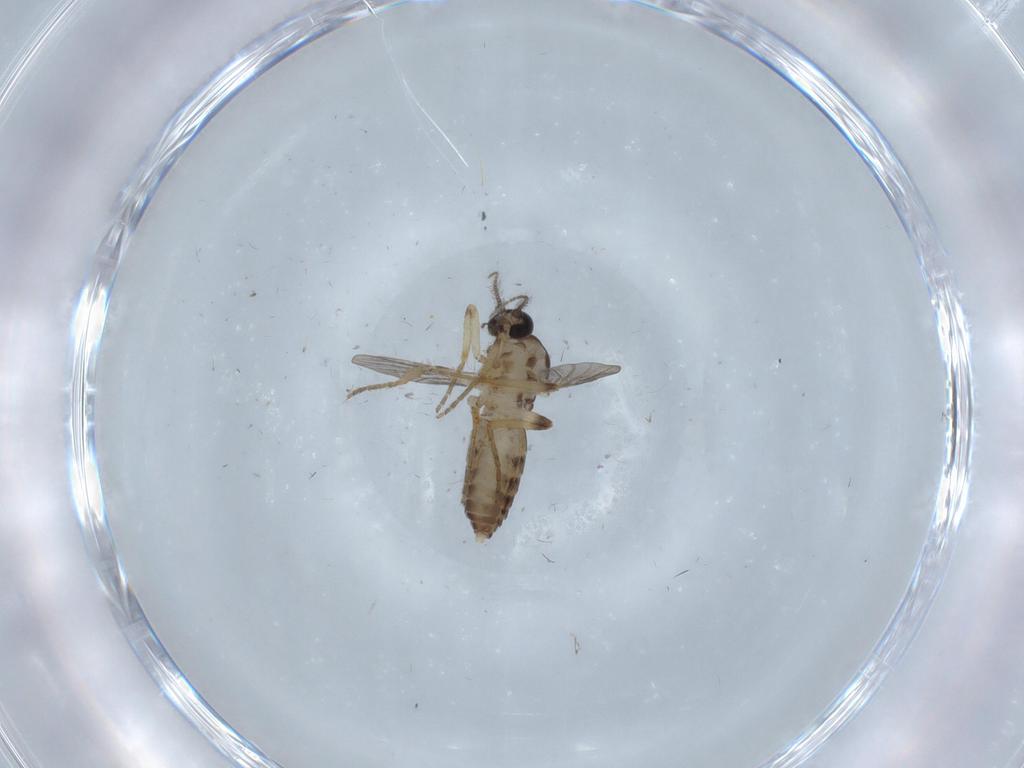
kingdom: Animalia
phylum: Arthropoda
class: Insecta
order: Diptera
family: Ceratopogonidae
